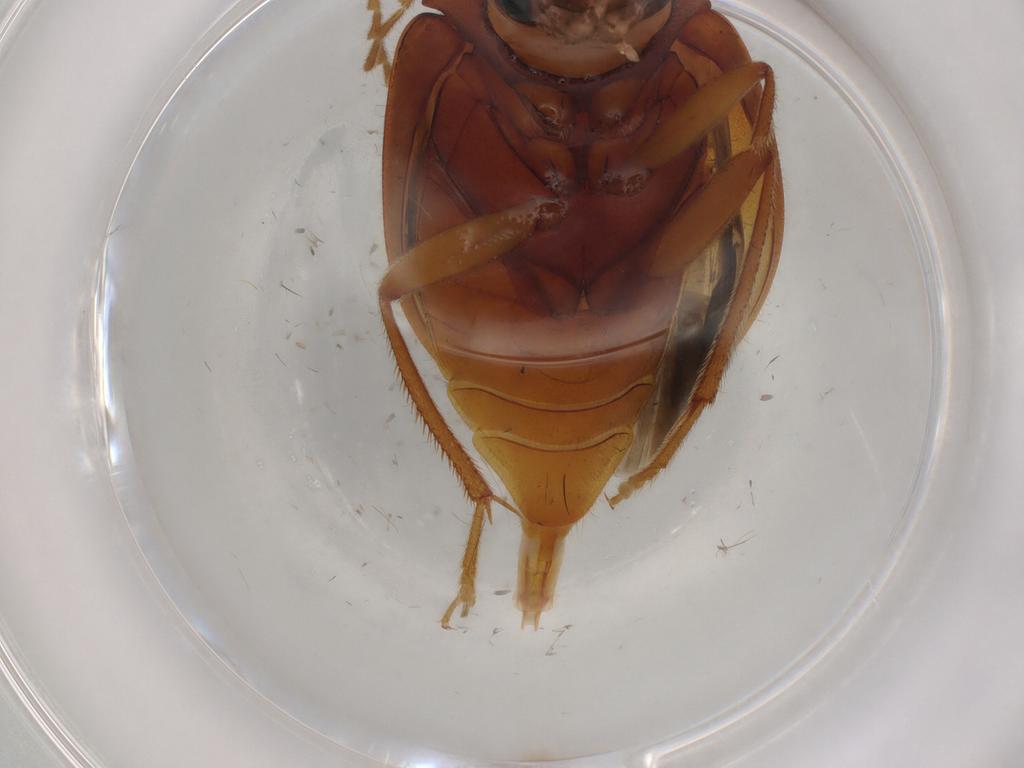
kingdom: Animalia
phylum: Arthropoda
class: Insecta
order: Coleoptera
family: Ptilodactylidae
